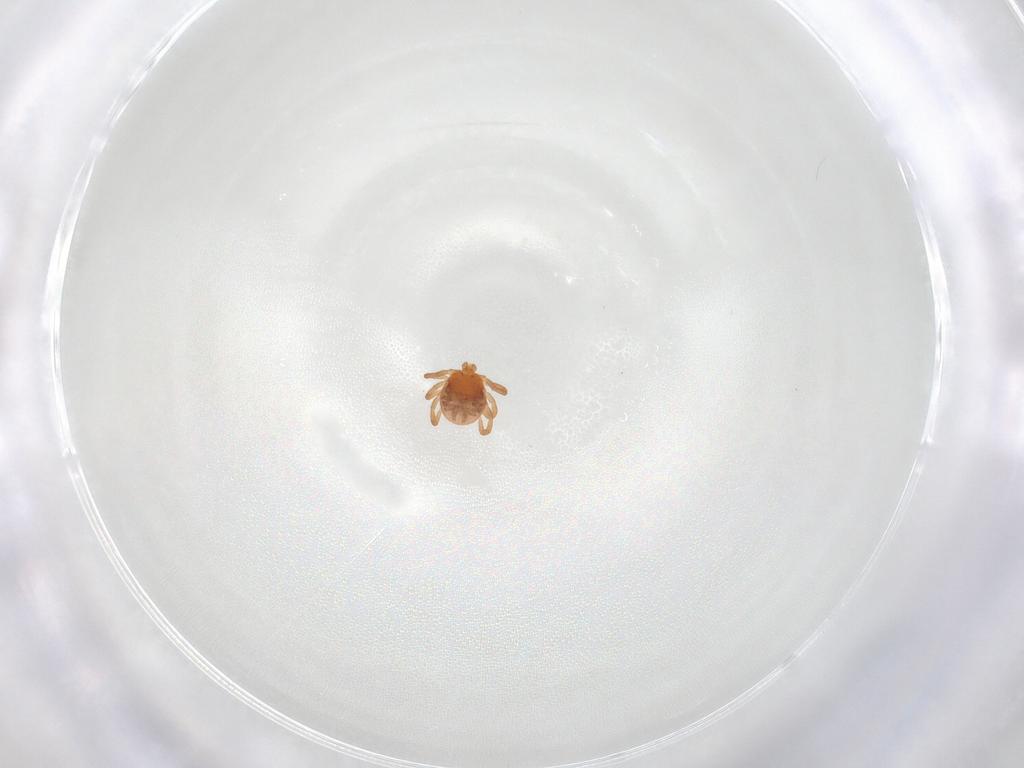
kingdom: Animalia
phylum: Arthropoda
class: Arachnida
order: Ixodida
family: Ixodidae
